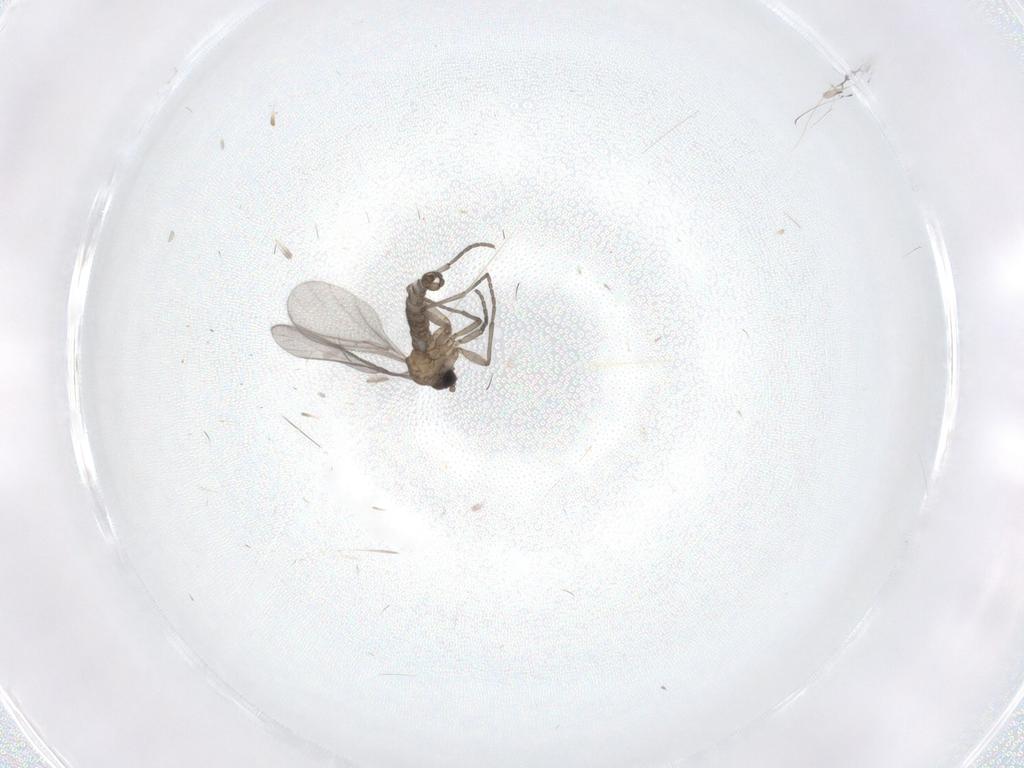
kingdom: Animalia
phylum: Arthropoda
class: Insecta
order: Diptera
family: Sciaridae
